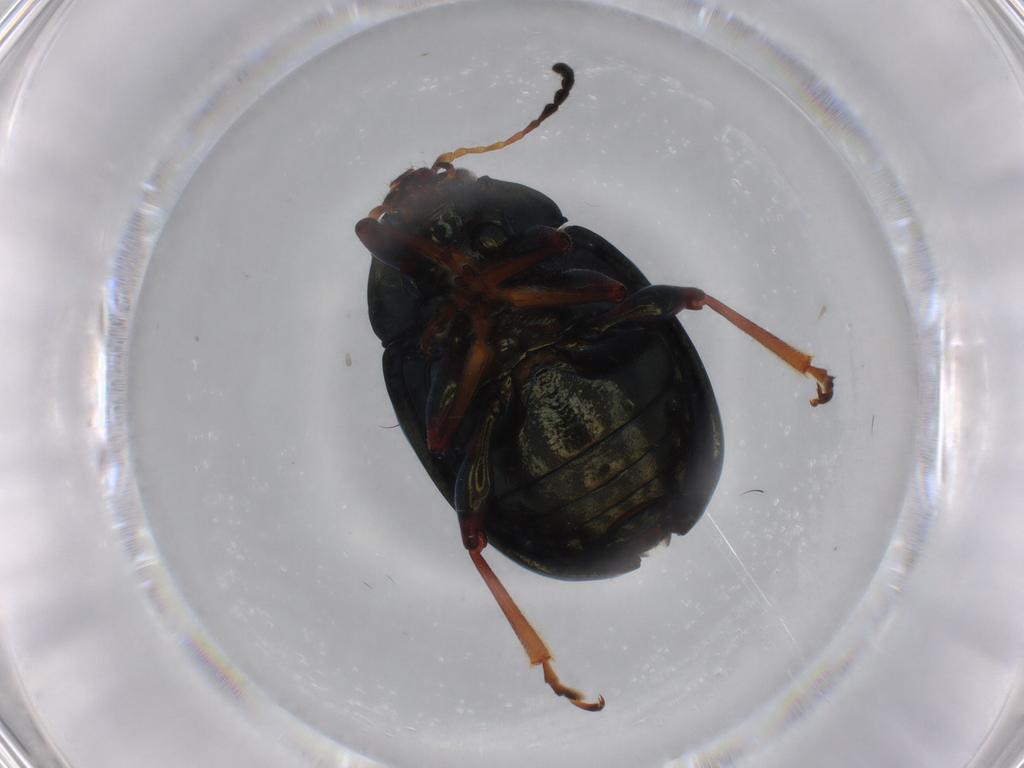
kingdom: Animalia
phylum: Arthropoda
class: Insecta
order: Coleoptera
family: Chrysomelidae
